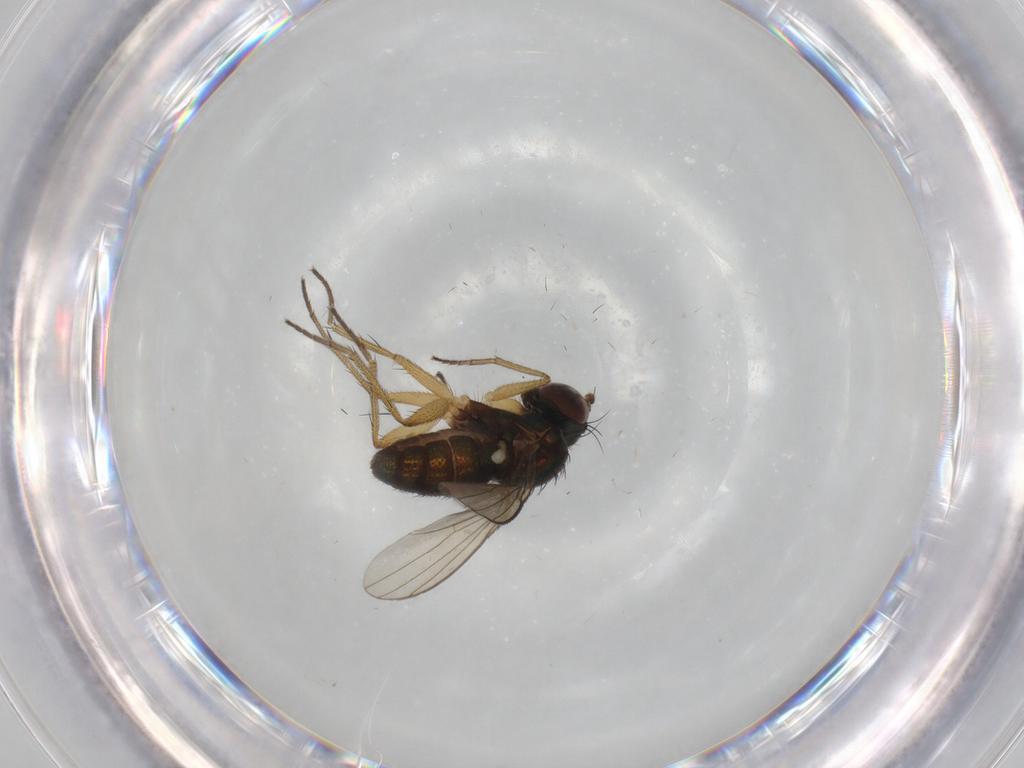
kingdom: Animalia
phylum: Arthropoda
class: Insecta
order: Diptera
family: Dolichopodidae
